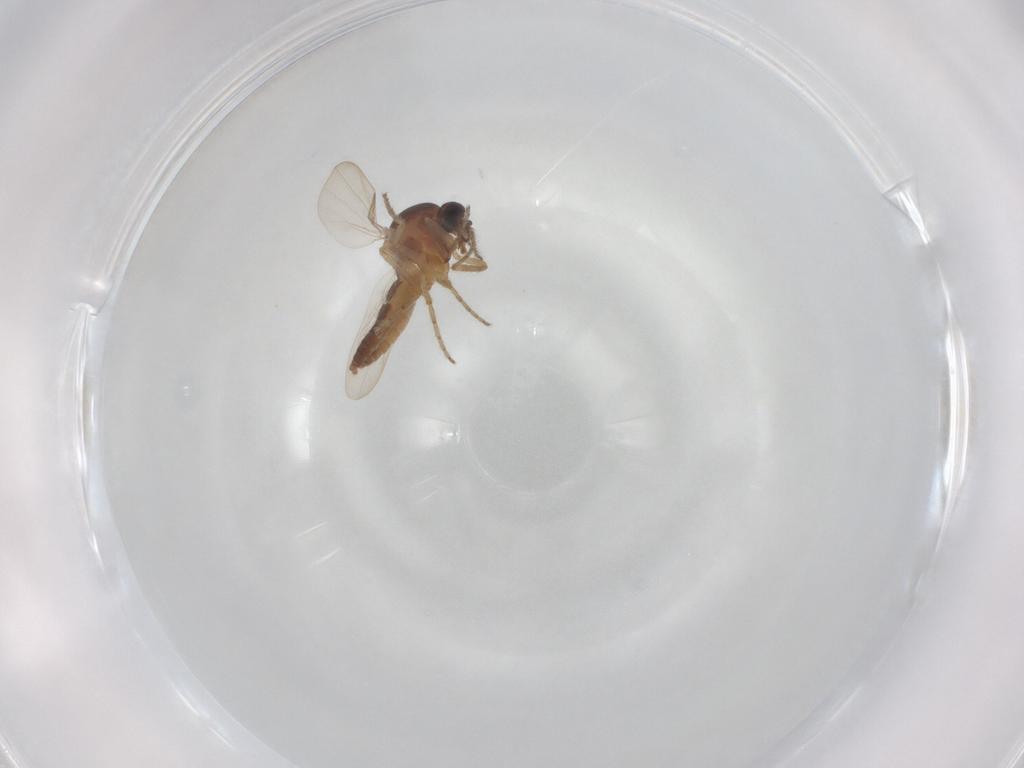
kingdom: Animalia
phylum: Arthropoda
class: Insecta
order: Diptera
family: Ceratopogonidae
